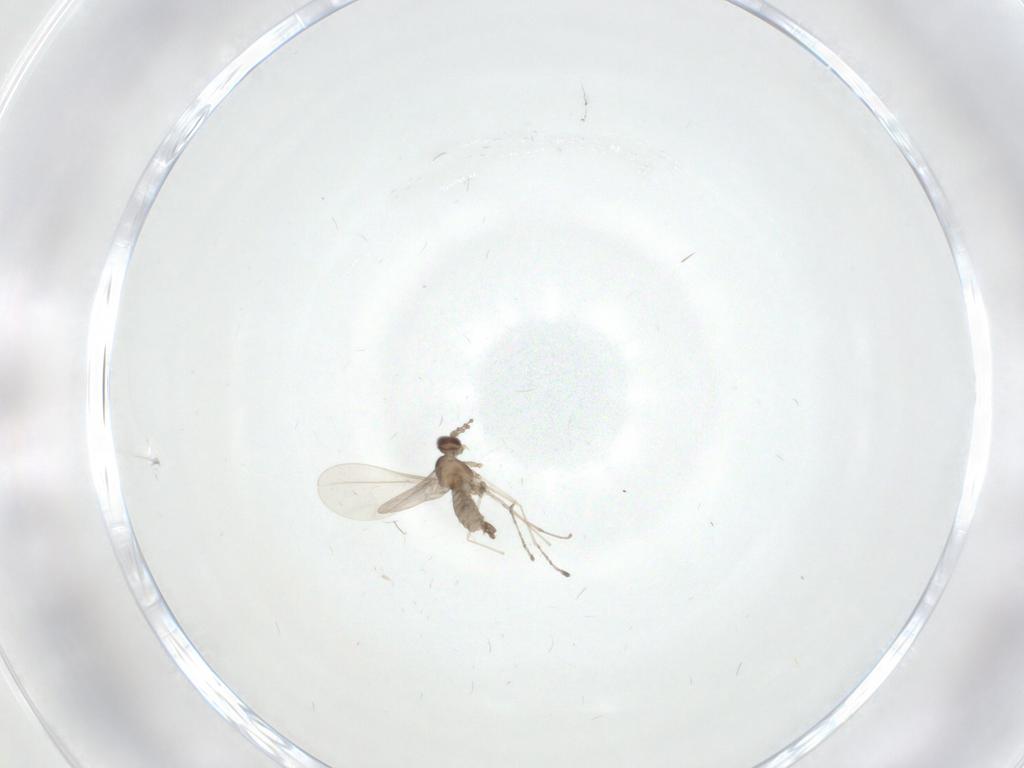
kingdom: Animalia
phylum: Arthropoda
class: Insecta
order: Diptera
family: Cecidomyiidae
